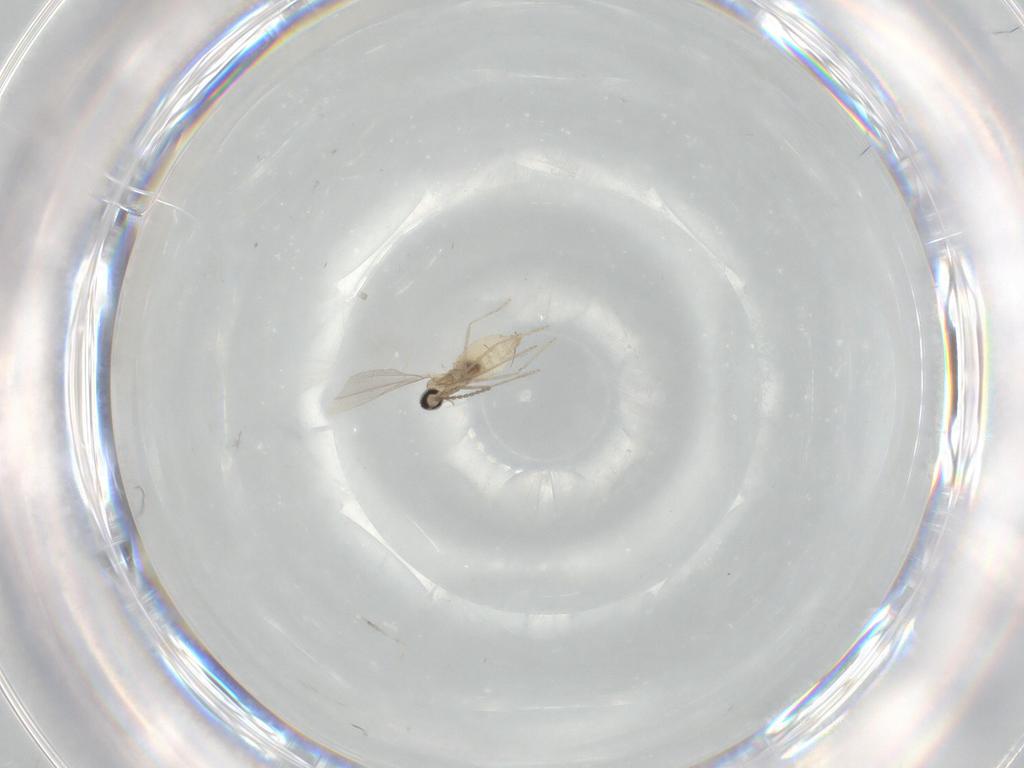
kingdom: Animalia
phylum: Arthropoda
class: Insecta
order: Diptera
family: Cecidomyiidae
